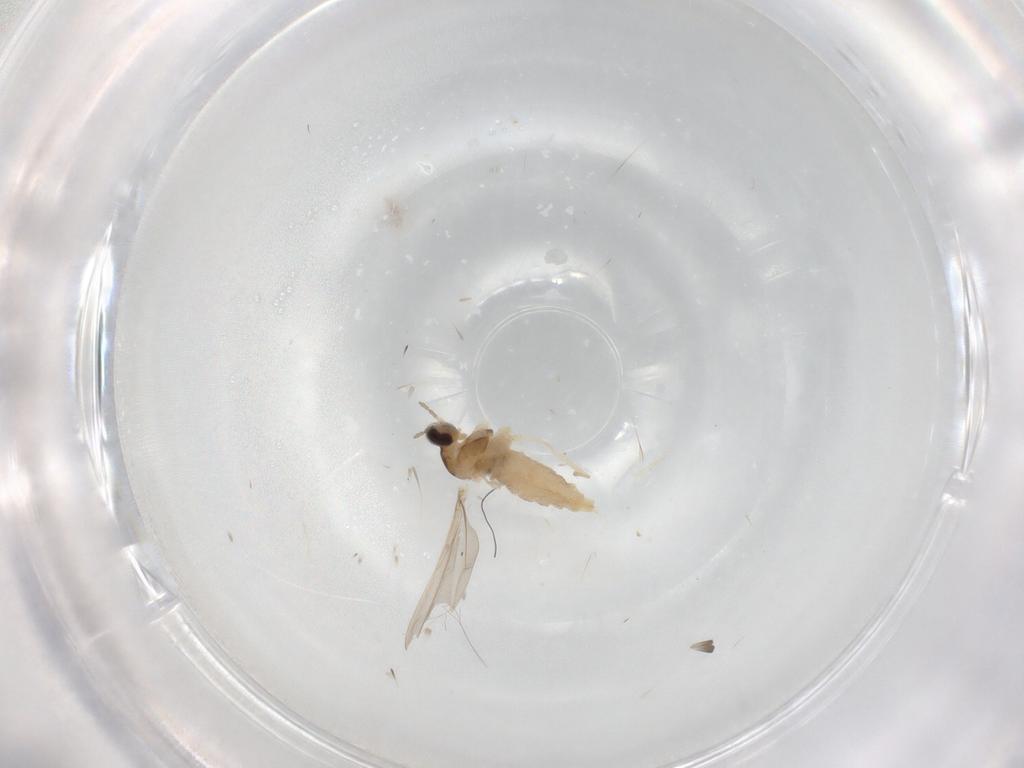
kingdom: Animalia
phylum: Arthropoda
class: Insecta
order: Diptera
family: Cecidomyiidae
